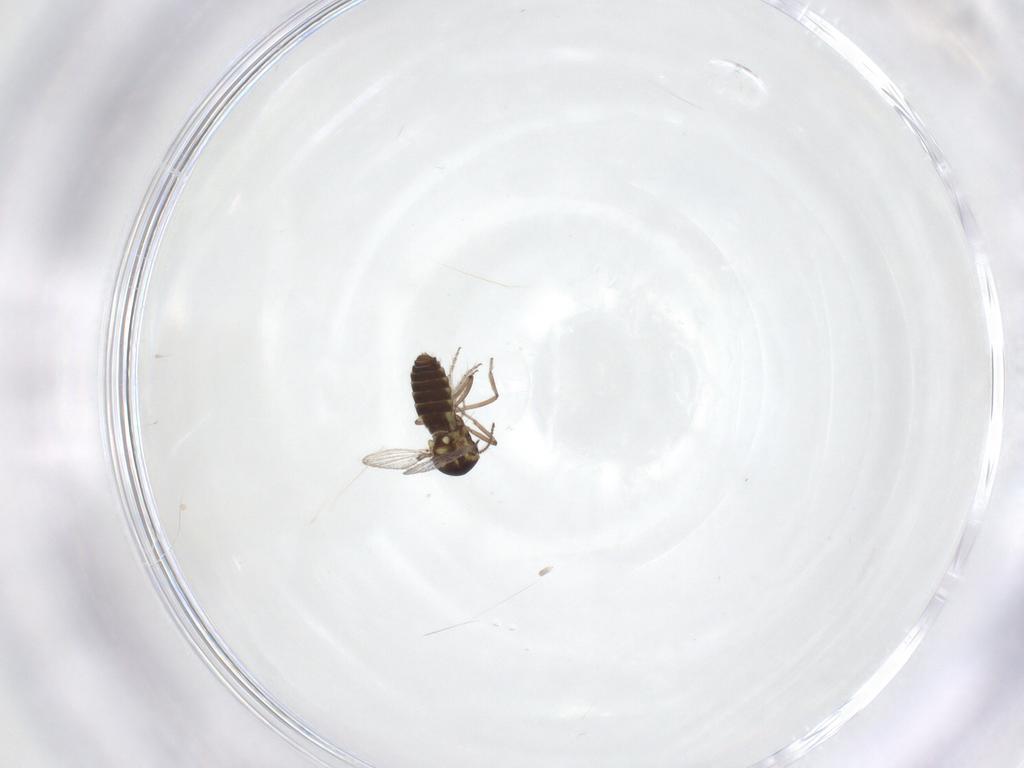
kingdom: Animalia
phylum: Arthropoda
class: Insecta
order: Diptera
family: Ceratopogonidae
